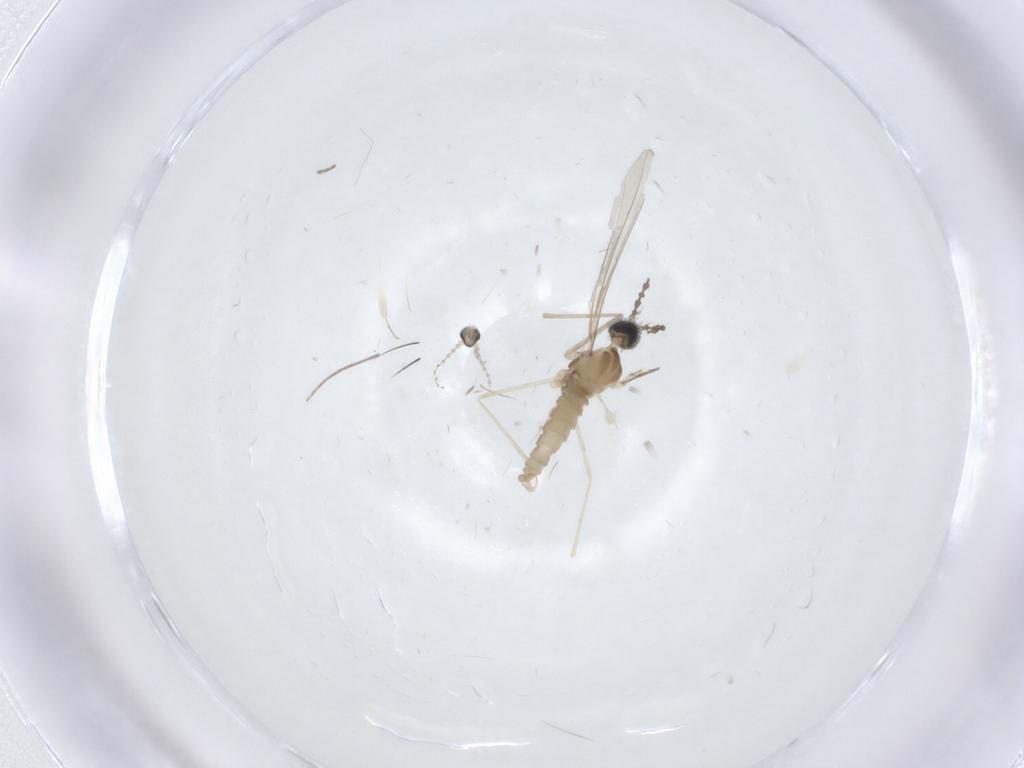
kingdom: Animalia
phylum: Arthropoda
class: Insecta
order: Diptera
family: Cecidomyiidae
